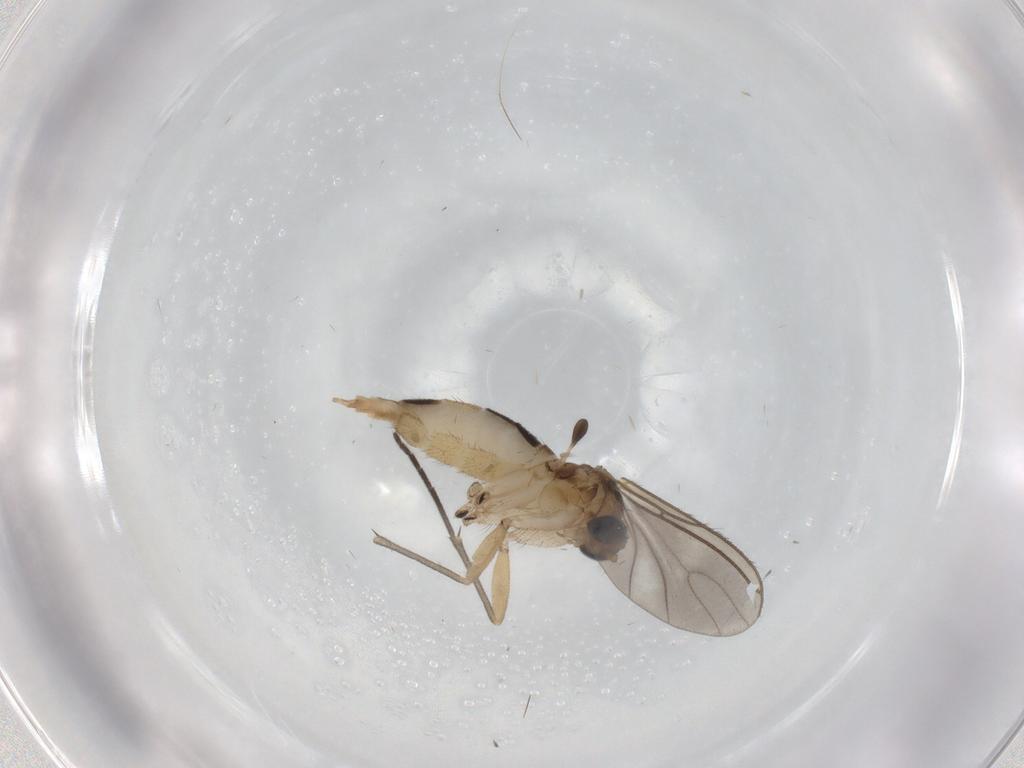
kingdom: Animalia
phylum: Arthropoda
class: Insecta
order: Diptera
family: Sciaridae
